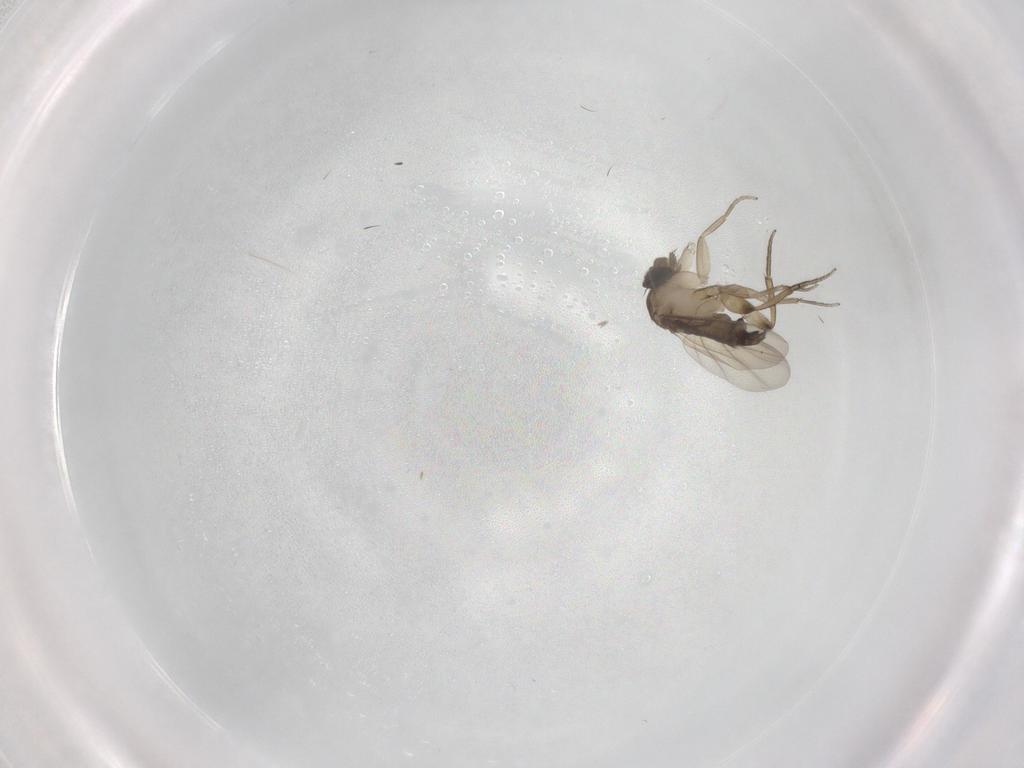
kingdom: Animalia
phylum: Arthropoda
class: Insecta
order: Diptera
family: Phoridae
